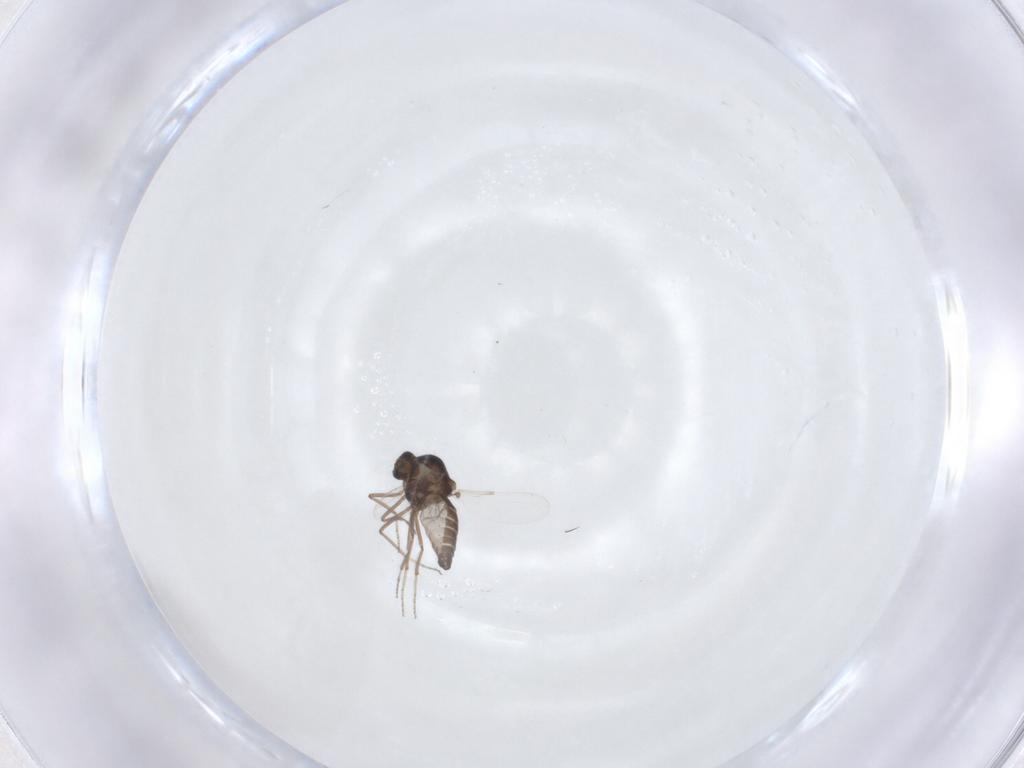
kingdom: Animalia
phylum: Arthropoda
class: Insecta
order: Diptera
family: Ceratopogonidae
